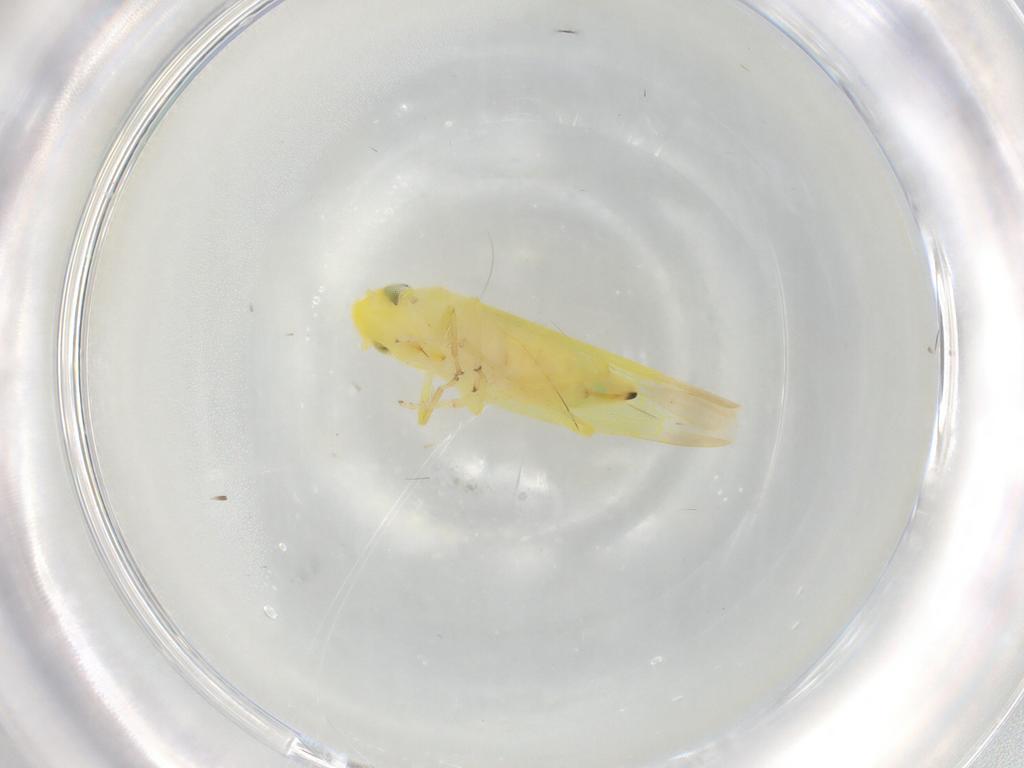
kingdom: Animalia
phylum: Arthropoda
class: Insecta
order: Hemiptera
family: Cicadellidae
